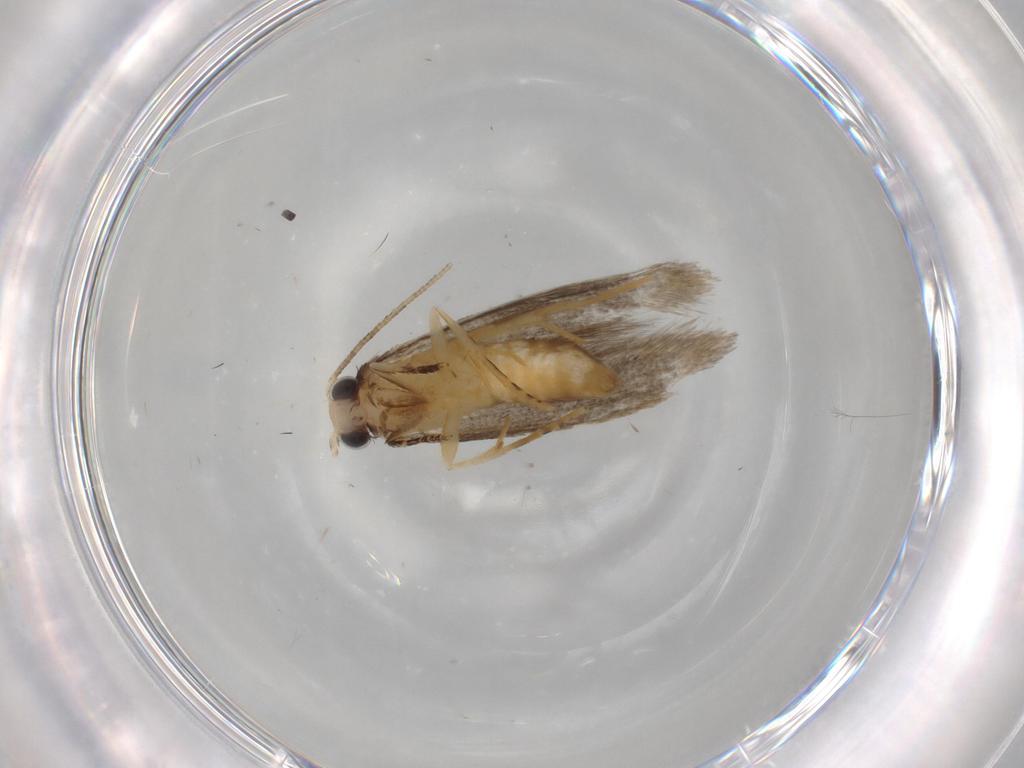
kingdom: Animalia
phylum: Arthropoda
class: Insecta
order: Lepidoptera
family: Tineidae
